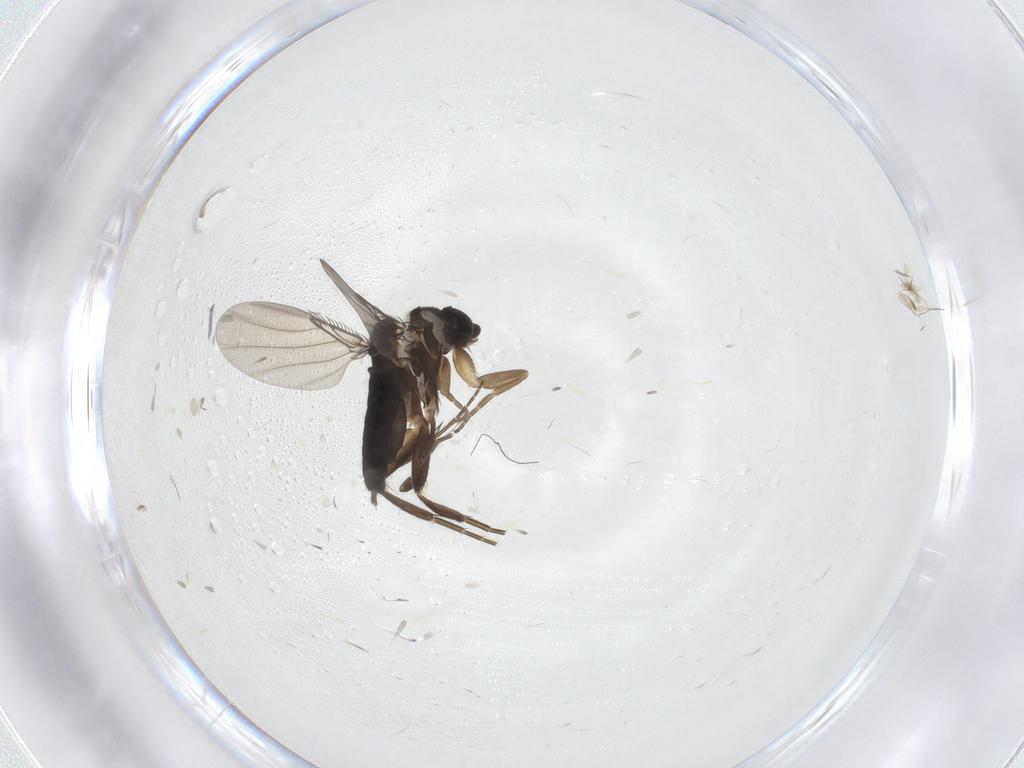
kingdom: Animalia
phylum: Arthropoda
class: Insecta
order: Diptera
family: Phoridae
